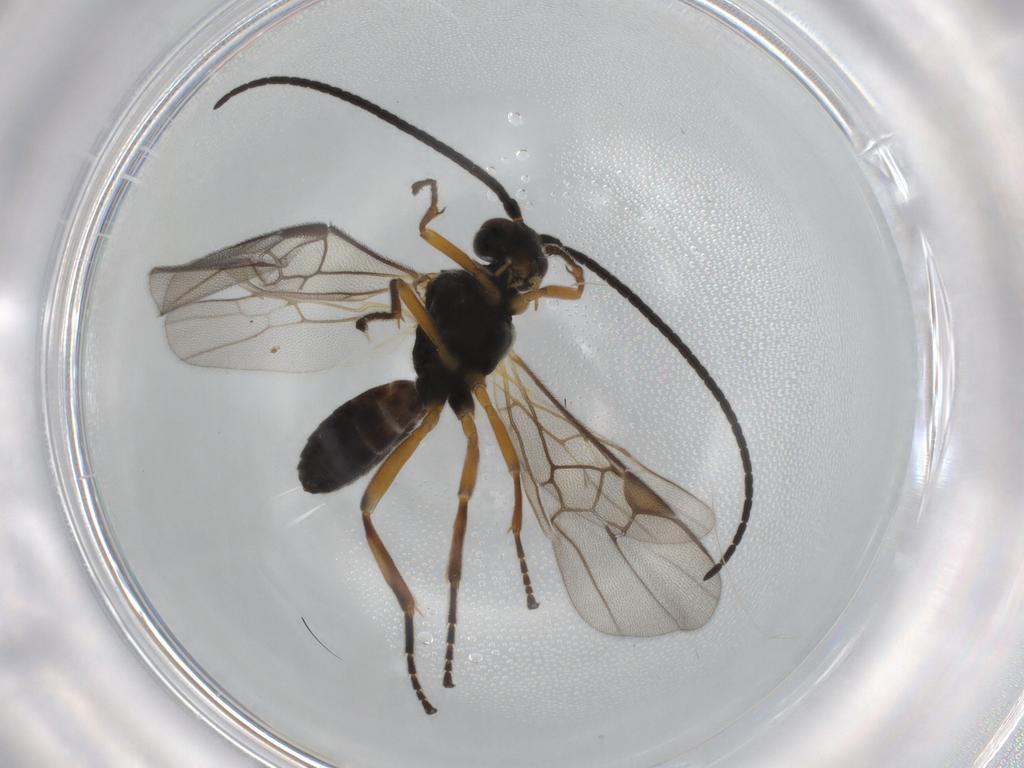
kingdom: Animalia
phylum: Arthropoda
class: Insecta
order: Hymenoptera
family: Braconidae
